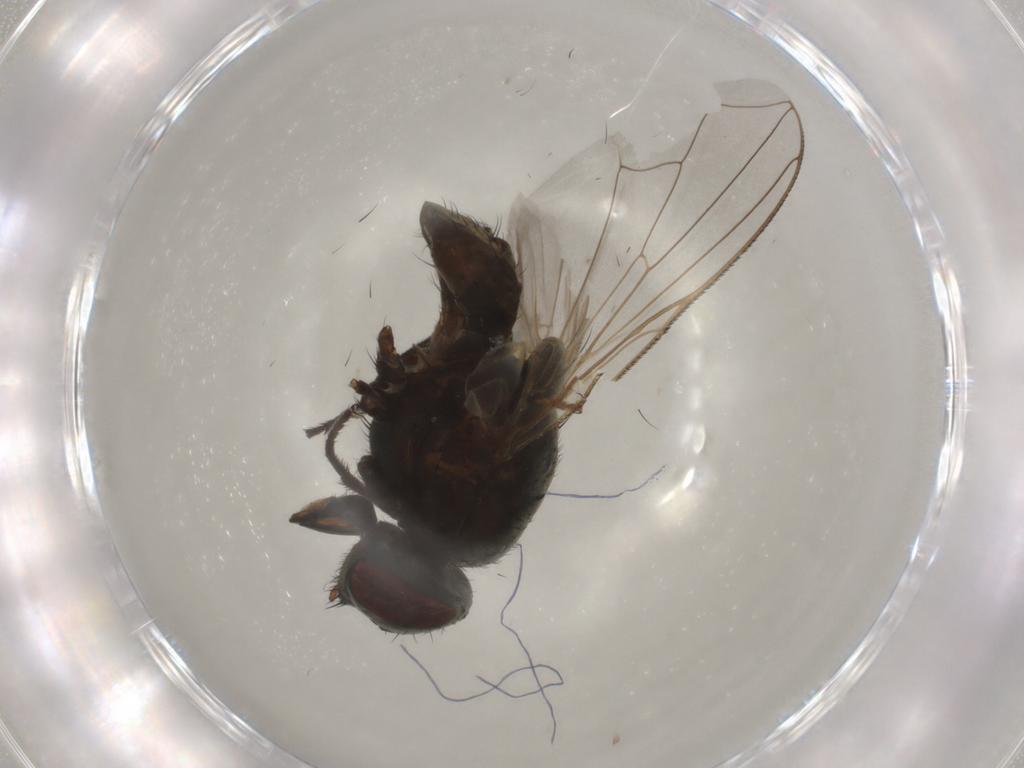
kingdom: Animalia
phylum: Arthropoda
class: Insecta
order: Diptera
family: Muscidae
